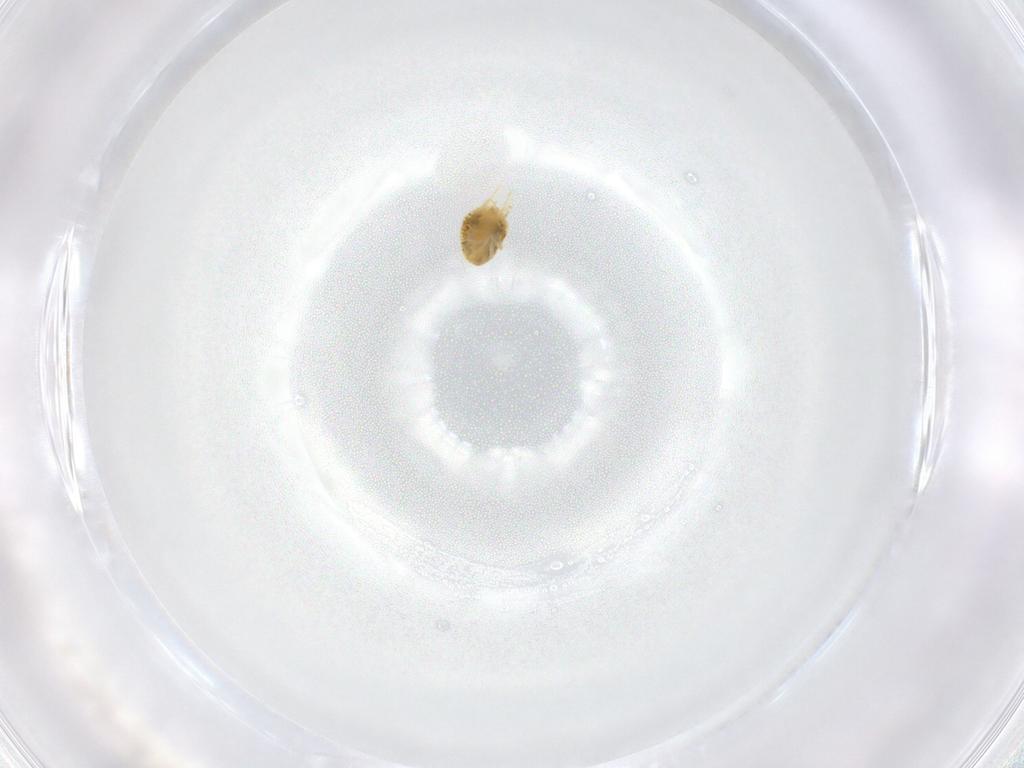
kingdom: Animalia
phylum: Arthropoda
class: Arachnida
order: Trombidiformes
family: Tetranychidae
